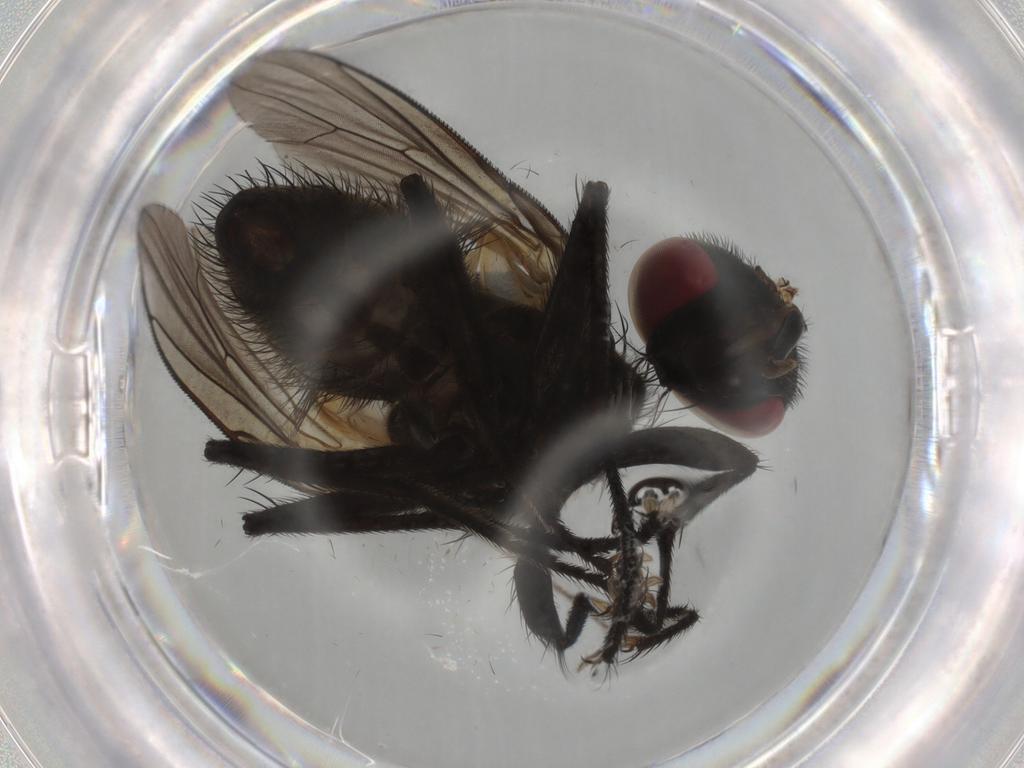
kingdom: Animalia
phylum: Arthropoda
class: Insecta
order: Diptera
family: Muscidae
